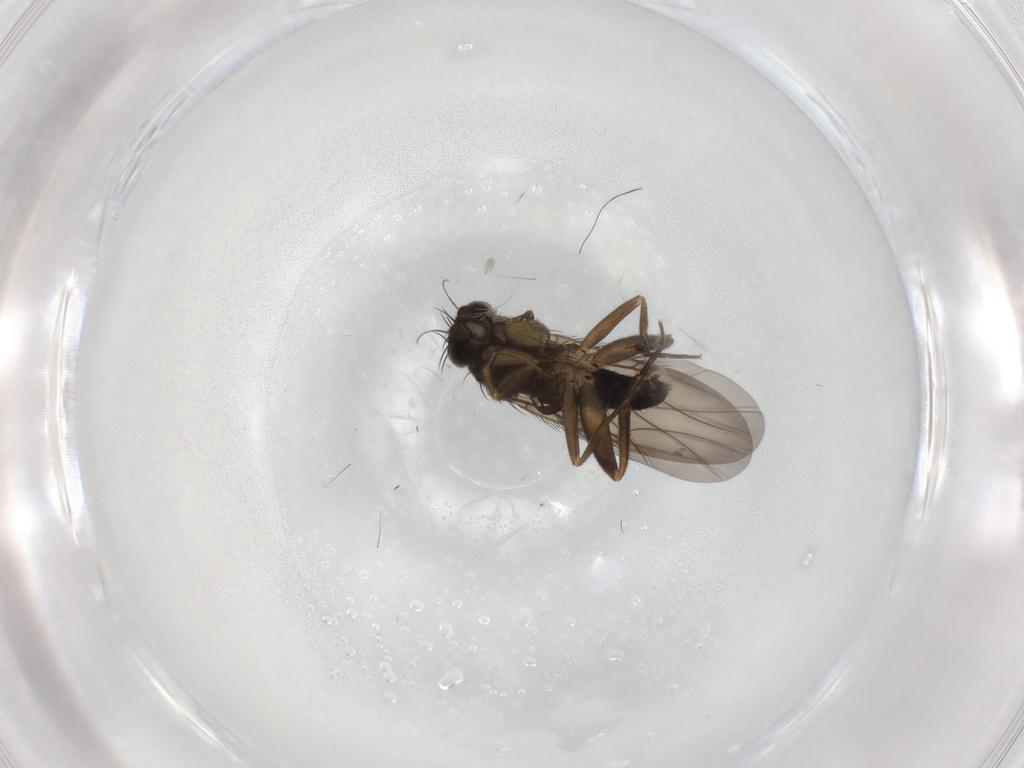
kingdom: Animalia
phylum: Arthropoda
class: Insecta
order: Diptera
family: Phoridae
